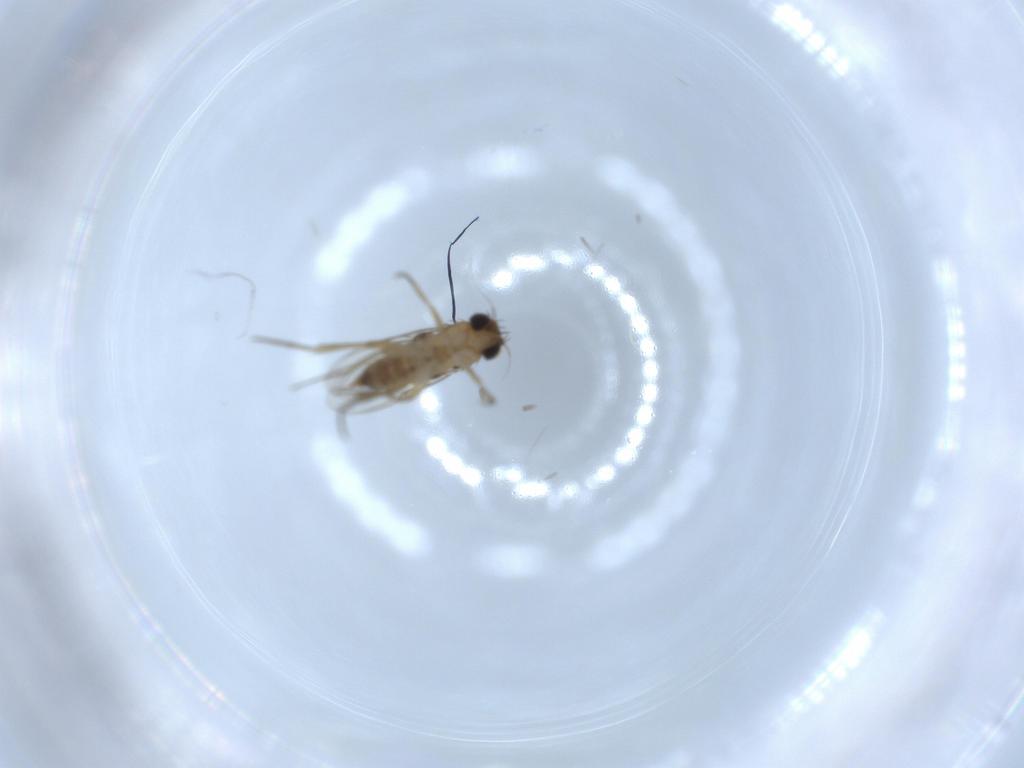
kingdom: Animalia
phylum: Arthropoda
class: Insecta
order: Diptera
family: Phoridae
